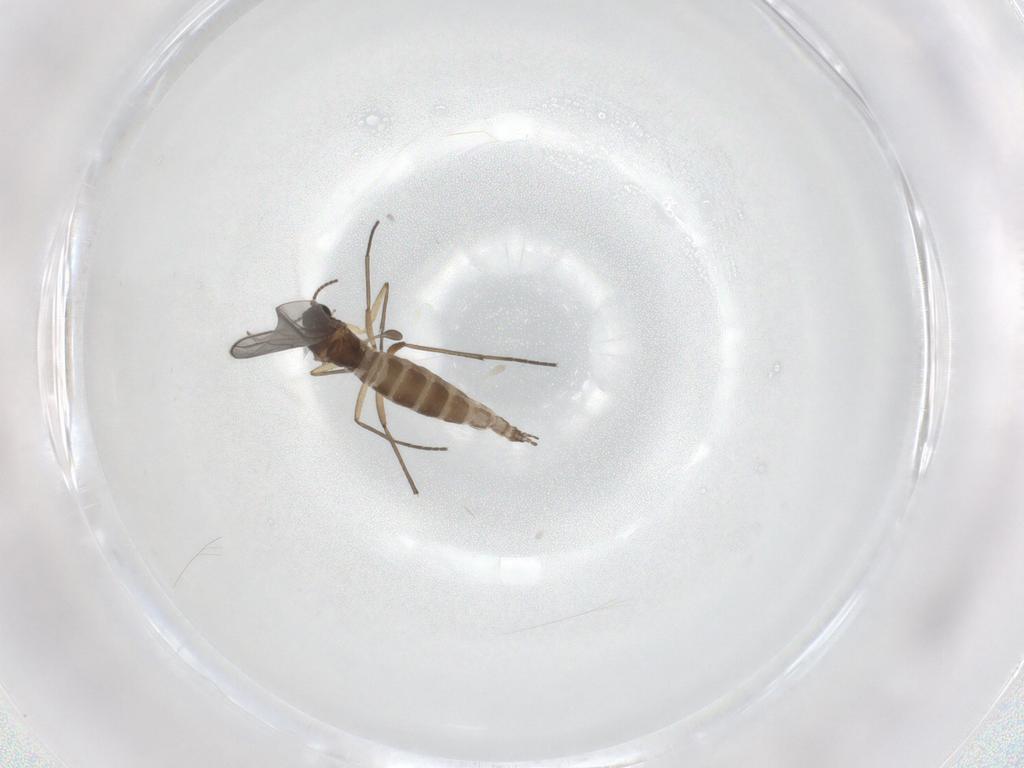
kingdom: Animalia
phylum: Arthropoda
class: Insecta
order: Diptera
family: Sciaridae
